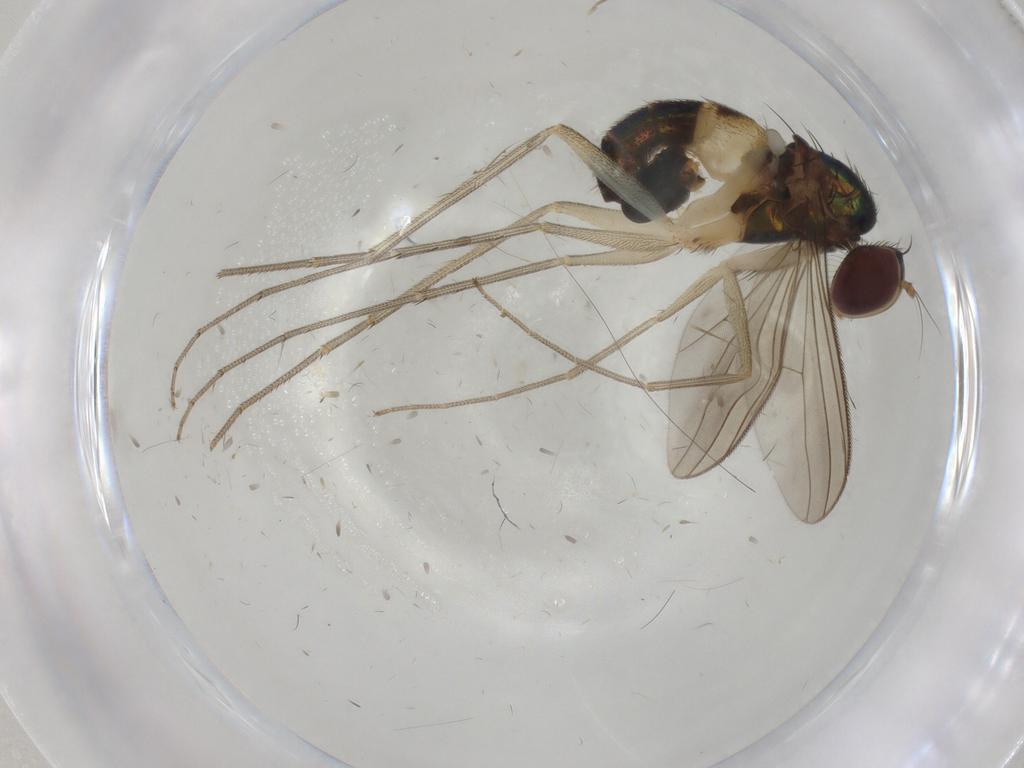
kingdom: Animalia
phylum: Arthropoda
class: Insecta
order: Diptera
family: Dolichopodidae
